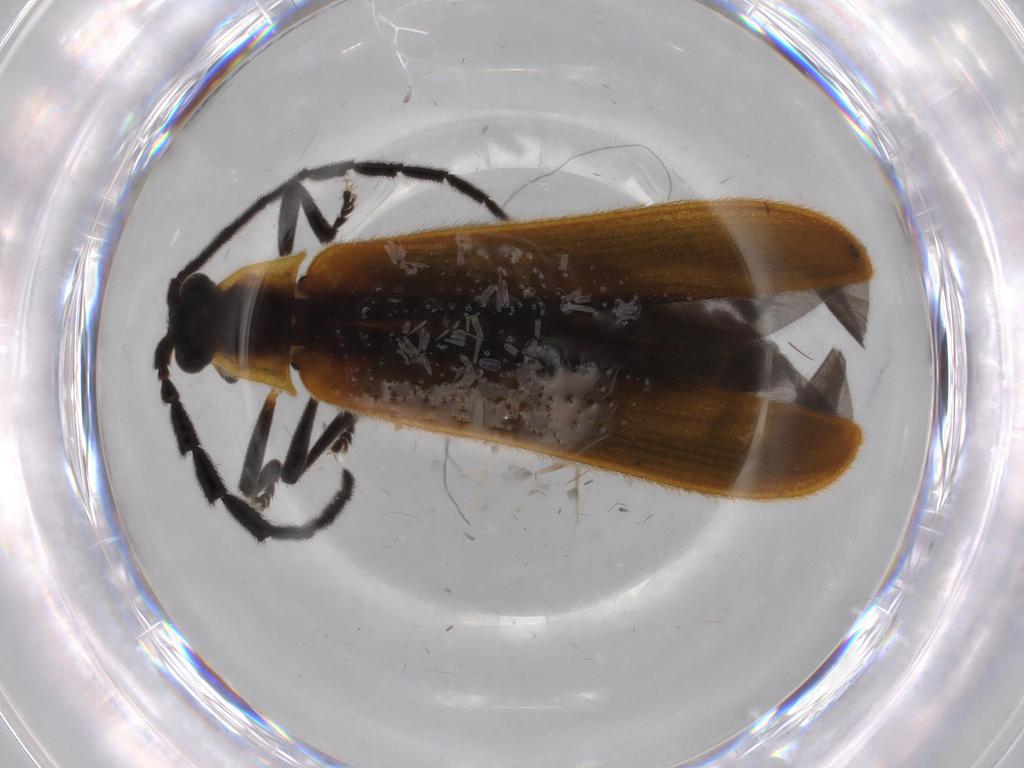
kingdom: Animalia
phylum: Arthropoda
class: Insecta
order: Coleoptera
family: Lycidae
